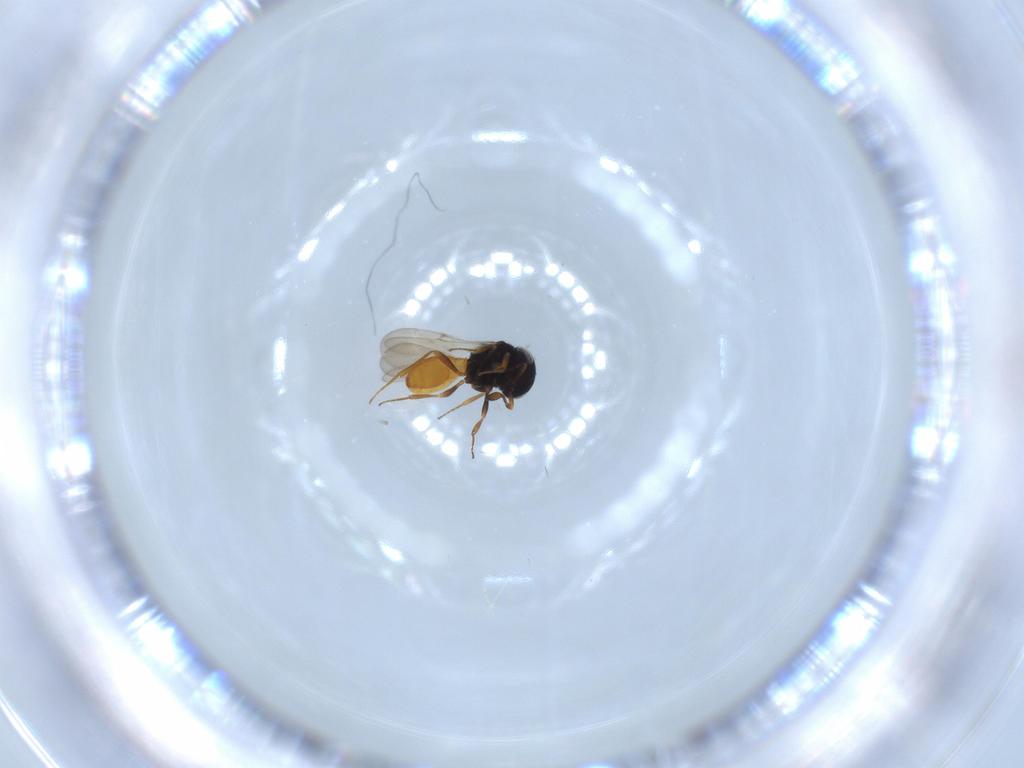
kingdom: Animalia
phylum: Arthropoda
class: Insecta
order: Hymenoptera
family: Scelionidae
